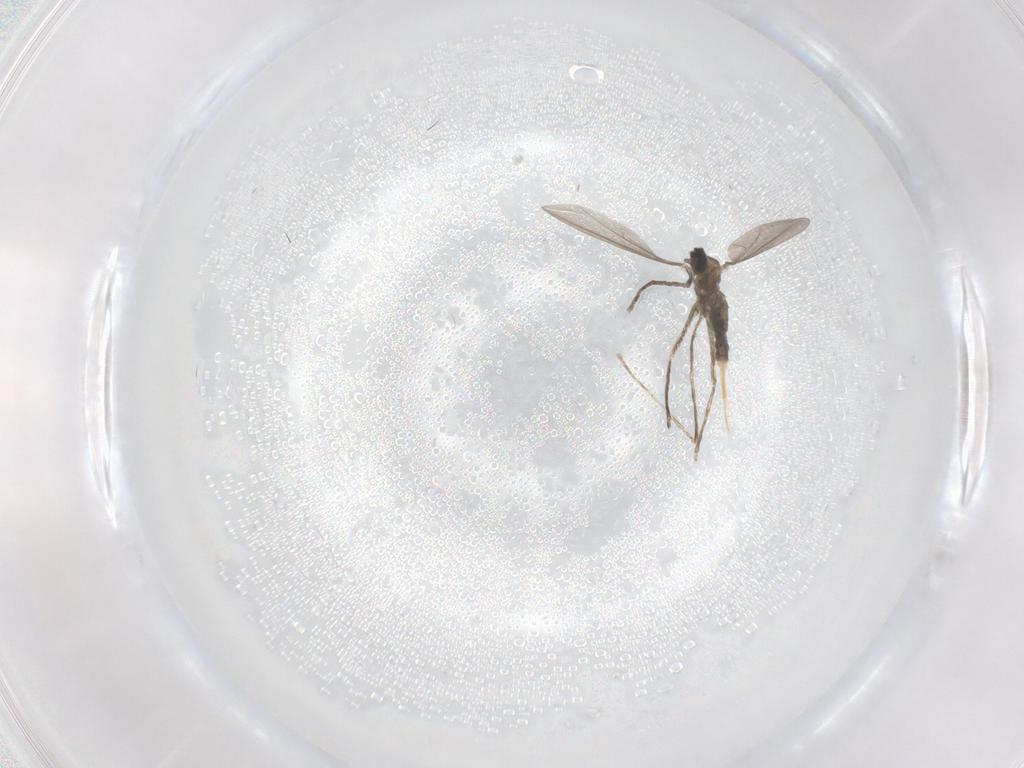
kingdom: Animalia
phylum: Arthropoda
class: Insecta
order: Diptera
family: Cecidomyiidae
